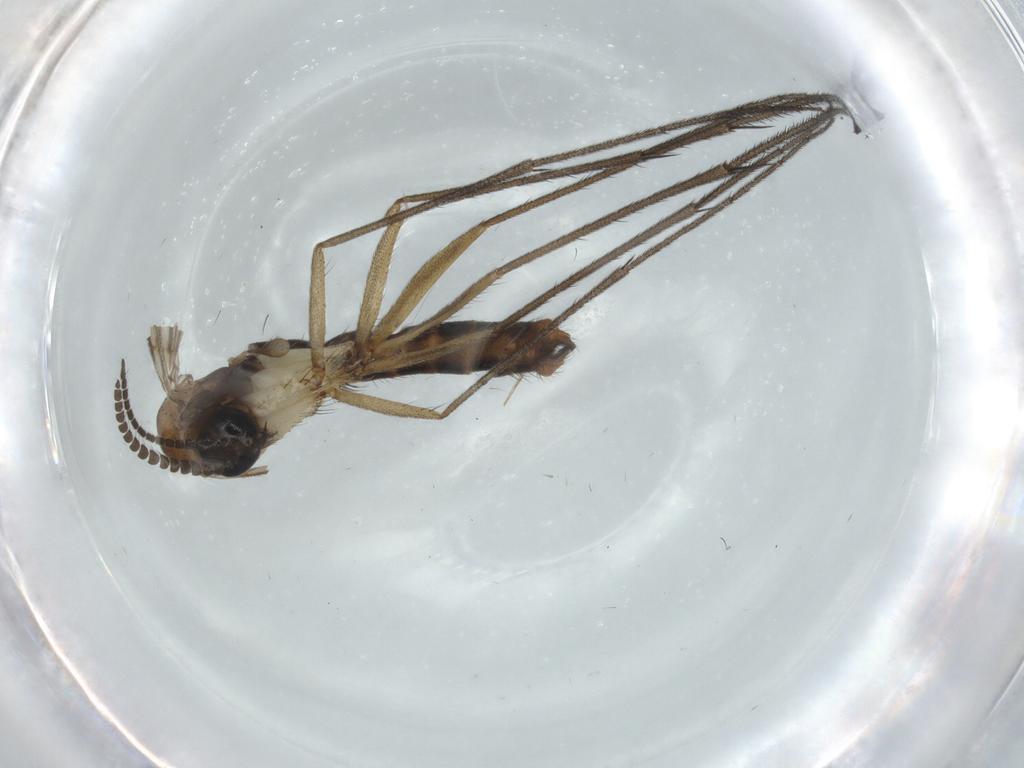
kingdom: Animalia
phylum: Arthropoda
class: Insecta
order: Diptera
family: Ditomyiidae
